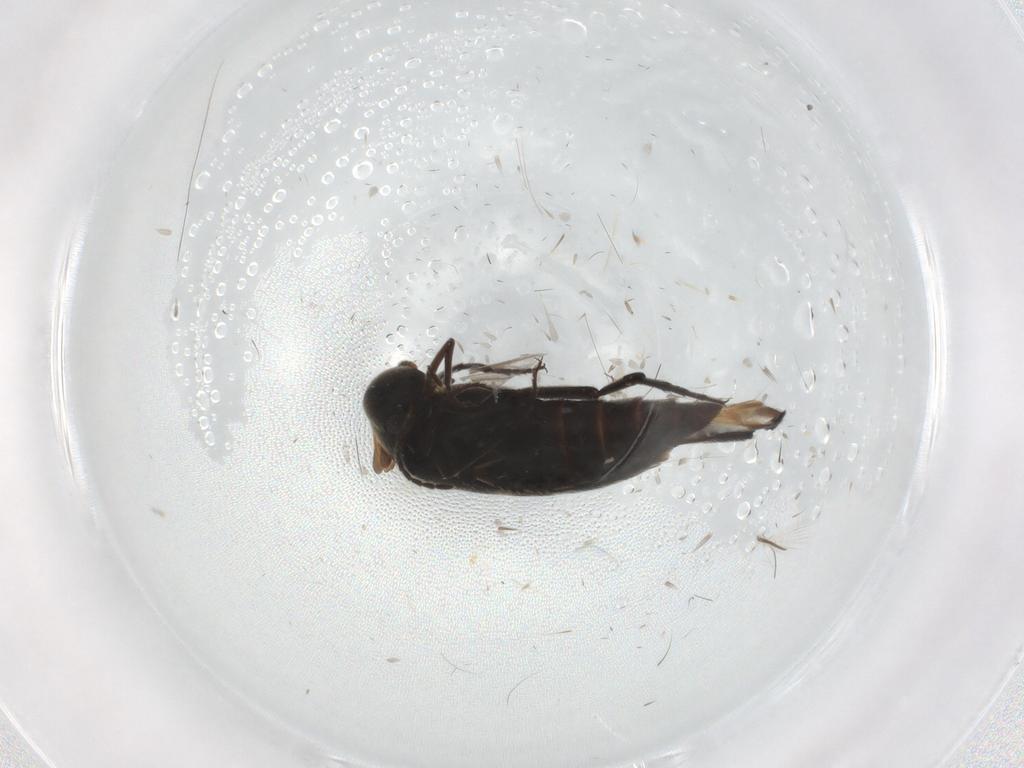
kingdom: Animalia
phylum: Arthropoda
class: Insecta
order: Coleoptera
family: Mordellidae
